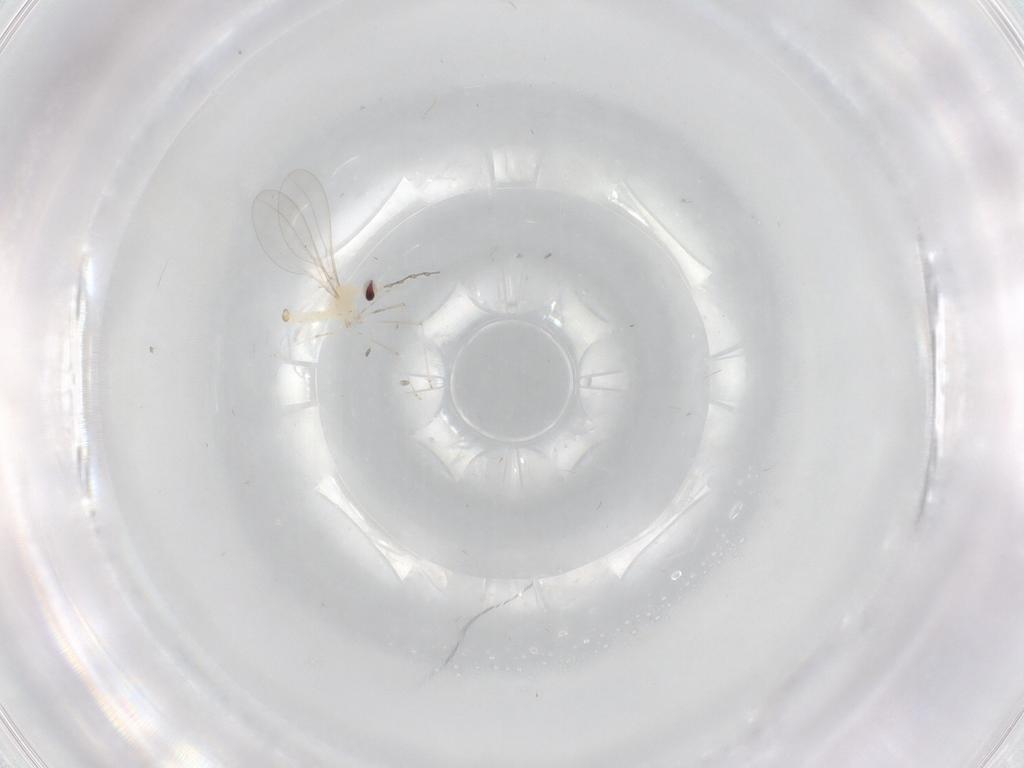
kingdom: Animalia
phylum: Arthropoda
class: Insecta
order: Diptera
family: Cecidomyiidae
